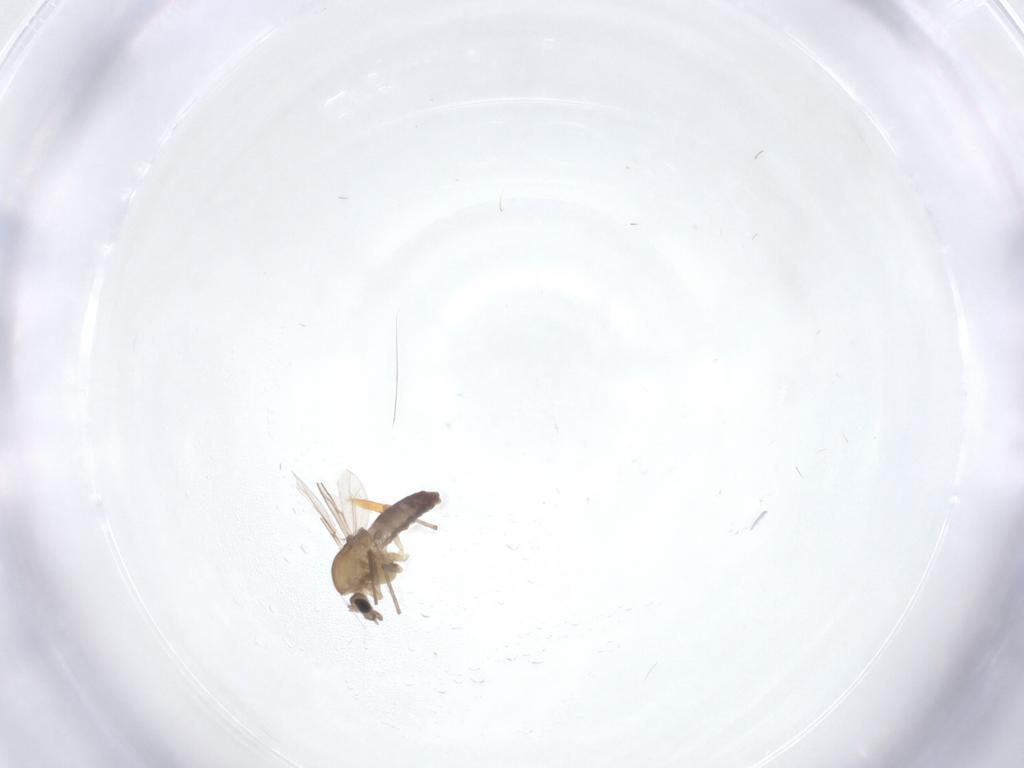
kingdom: Animalia
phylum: Arthropoda
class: Insecta
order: Diptera
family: Chironomidae
